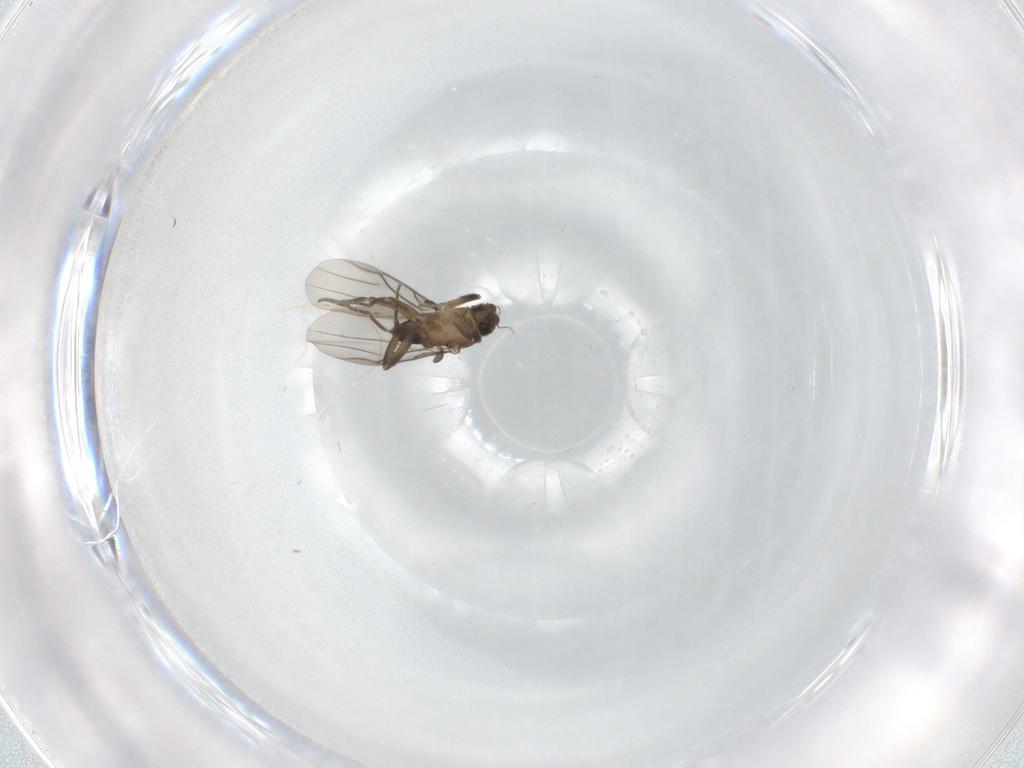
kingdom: Animalia
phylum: Arthropoda
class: Insecta
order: Diptera
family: Phoridae
